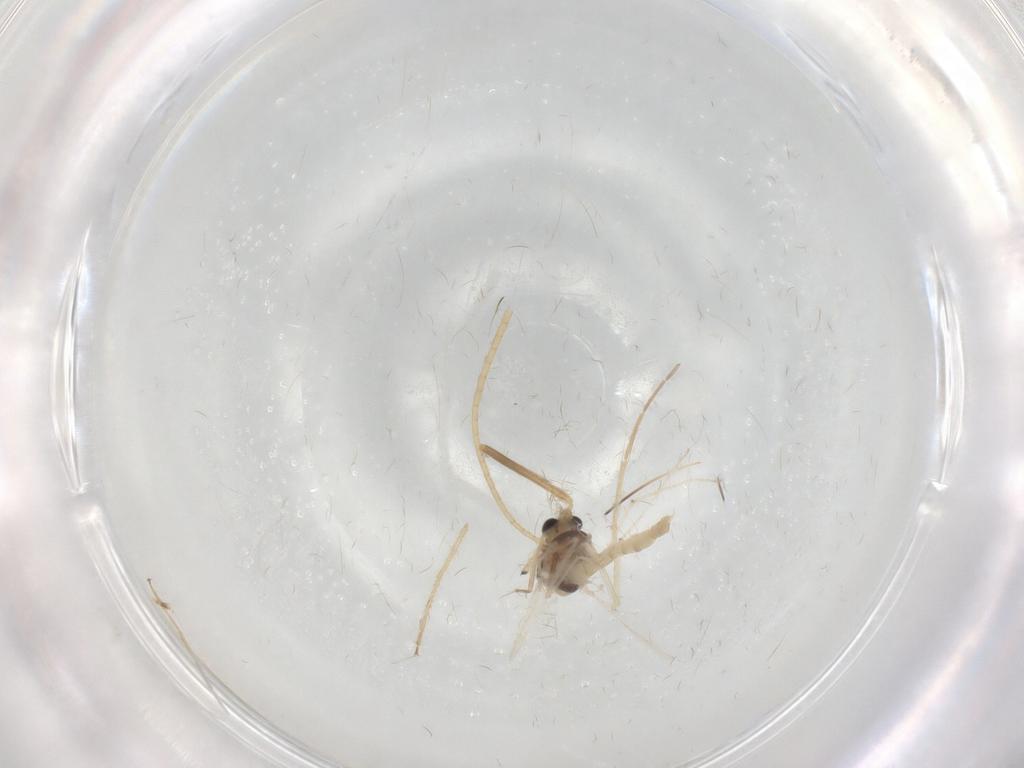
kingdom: Animalia
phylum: Arthropoda
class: Insecta
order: Diptera
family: Chironomidae
